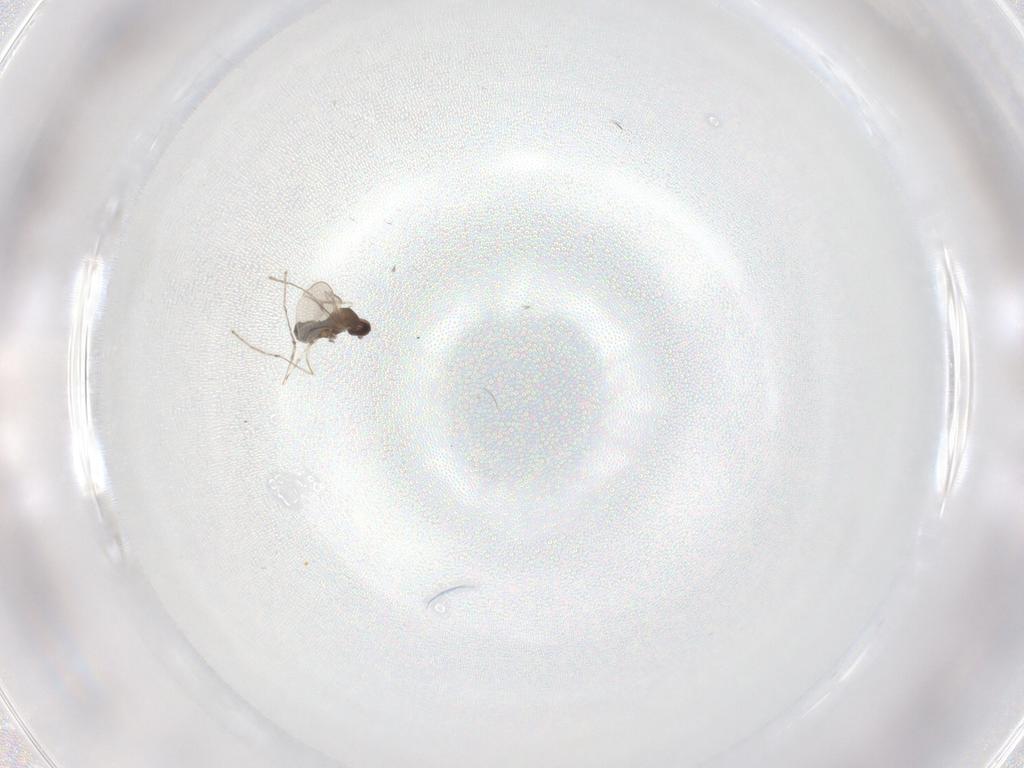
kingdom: Animalia
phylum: Arthropoda
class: Insecta
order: Diptera
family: Cecidomyiidae
